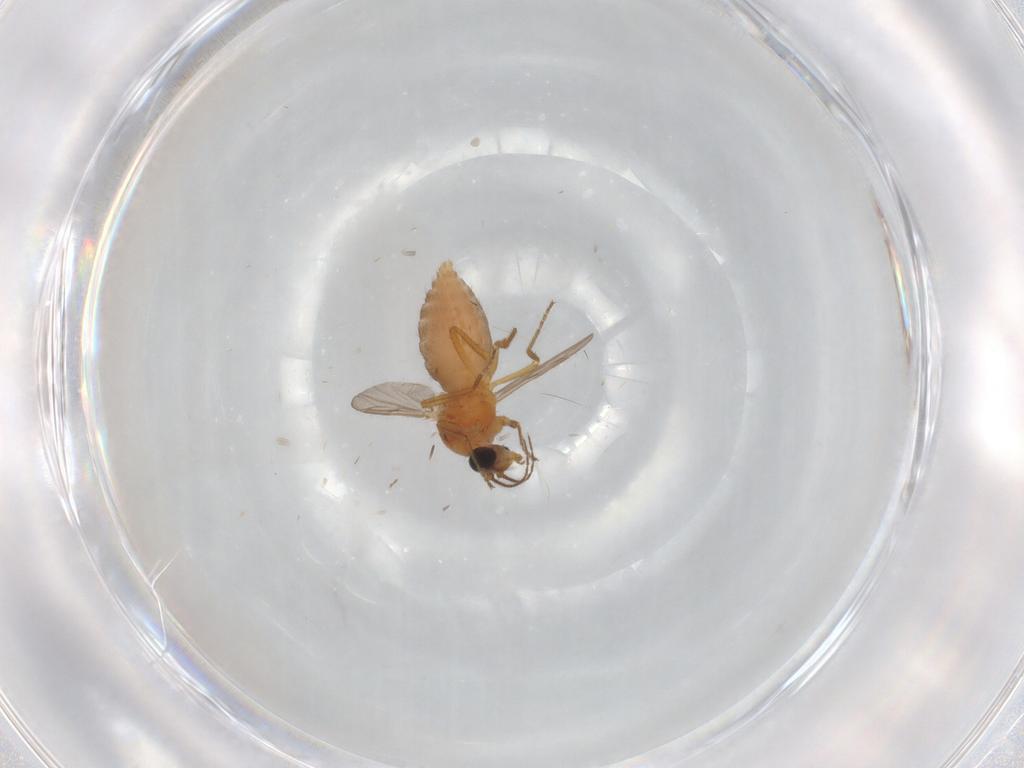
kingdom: Animalia
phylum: Arthropoda
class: Insecta
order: Diptera
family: Ceratopogonidae
